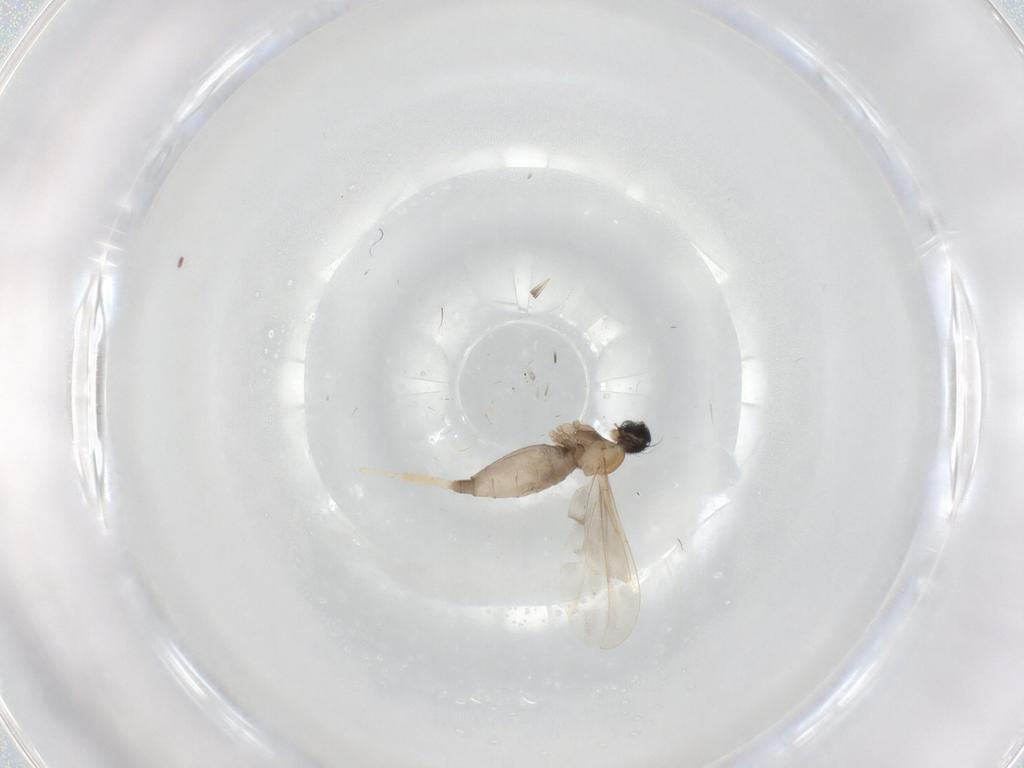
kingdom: Animalia
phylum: Arthropoda
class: Insecta
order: Diptera
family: Cecidomyiidae
